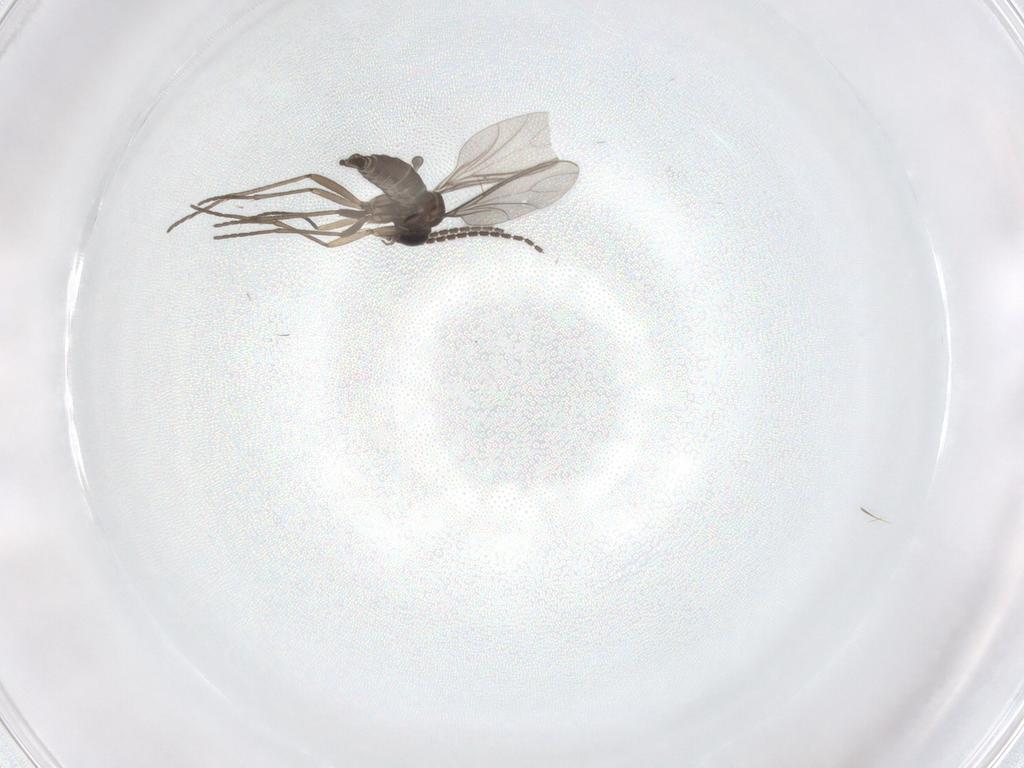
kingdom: Animalia
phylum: Arthropoda
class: Insecta
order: Diptera
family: Sciaridae
